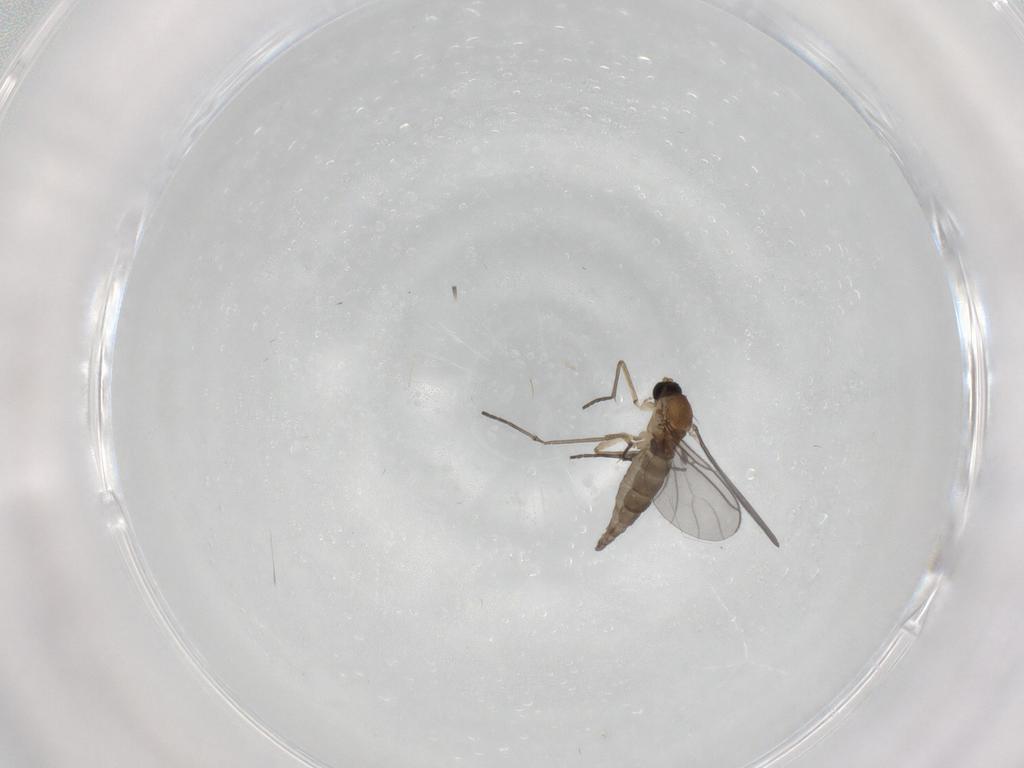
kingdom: Animalia
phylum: Arthropoda
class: Insecta
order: Diptera
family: Sciaridae
